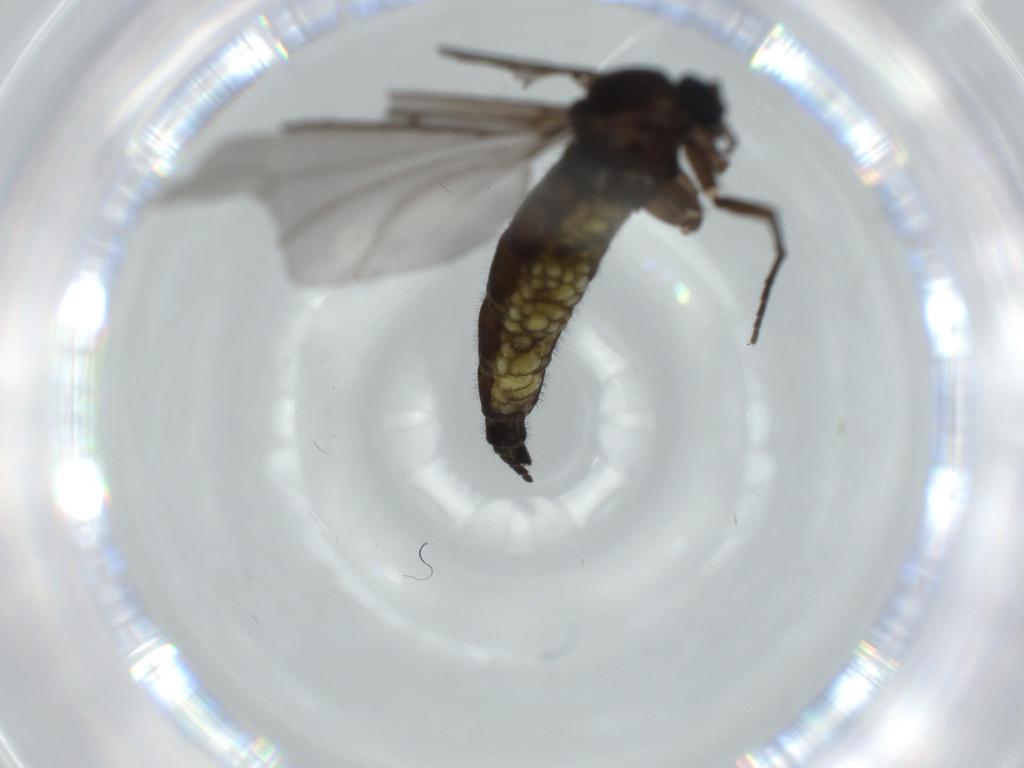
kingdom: Animalia
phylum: Arthropoda
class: Insecta
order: Diptera
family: Sciaridae
